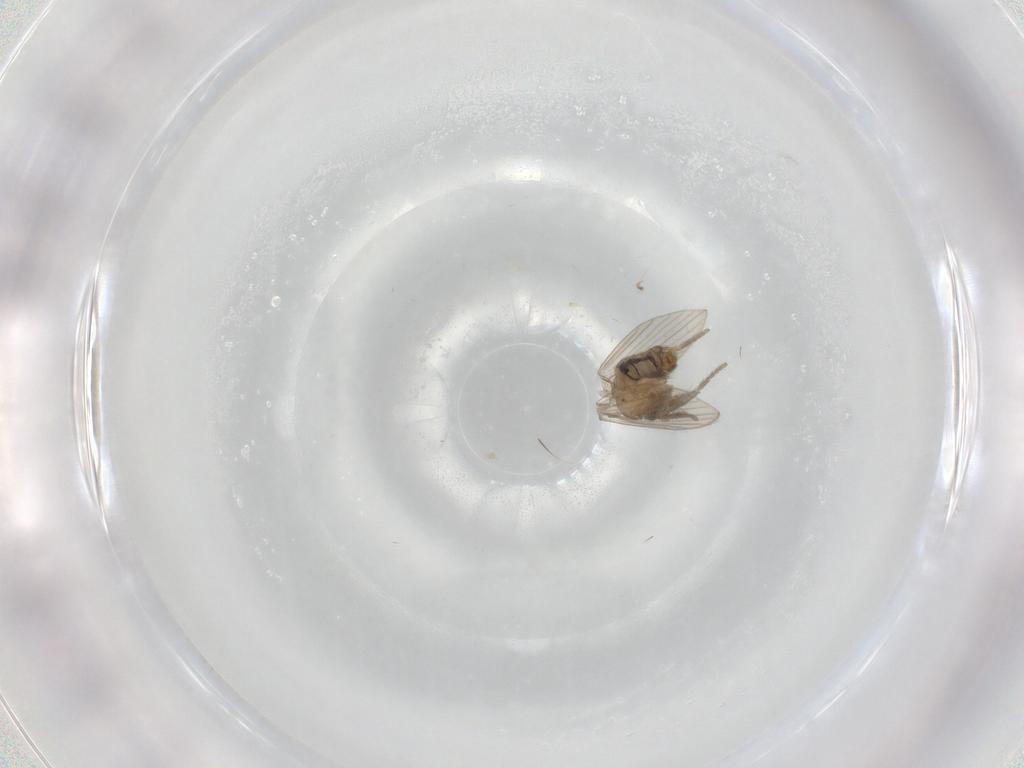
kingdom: Animalia
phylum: Arthropoda
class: Insecta
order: Diptera
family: Psychodidae
